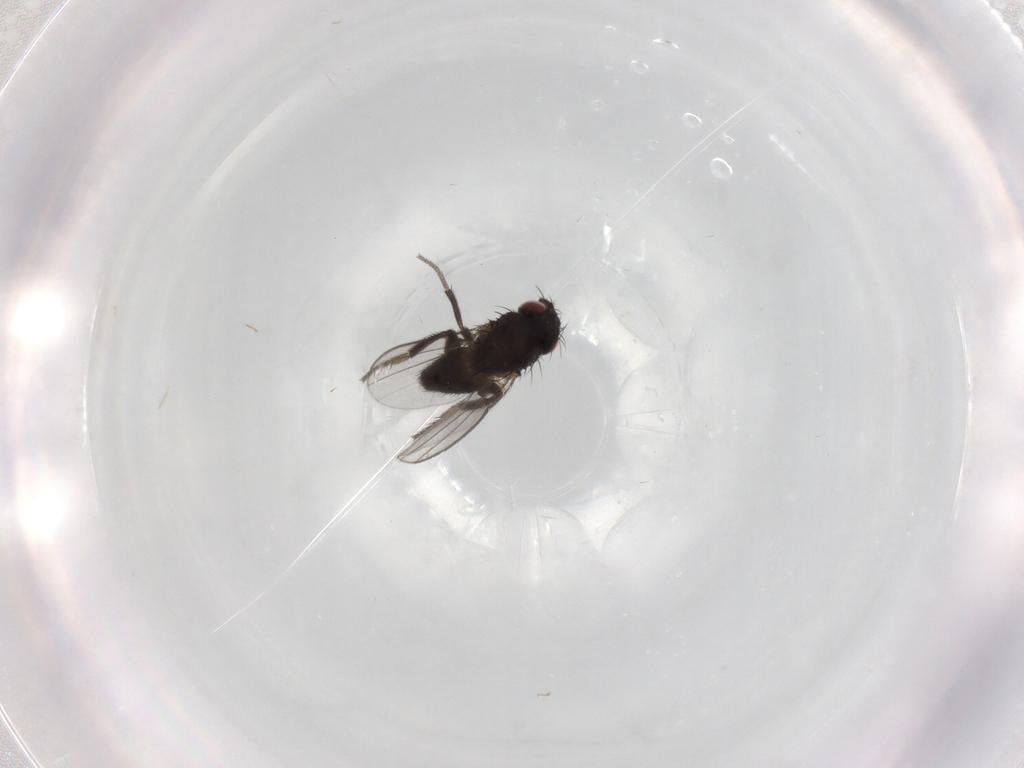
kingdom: Animalia
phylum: Arthropoda
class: Insecta
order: Diptera
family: Milichiidae
